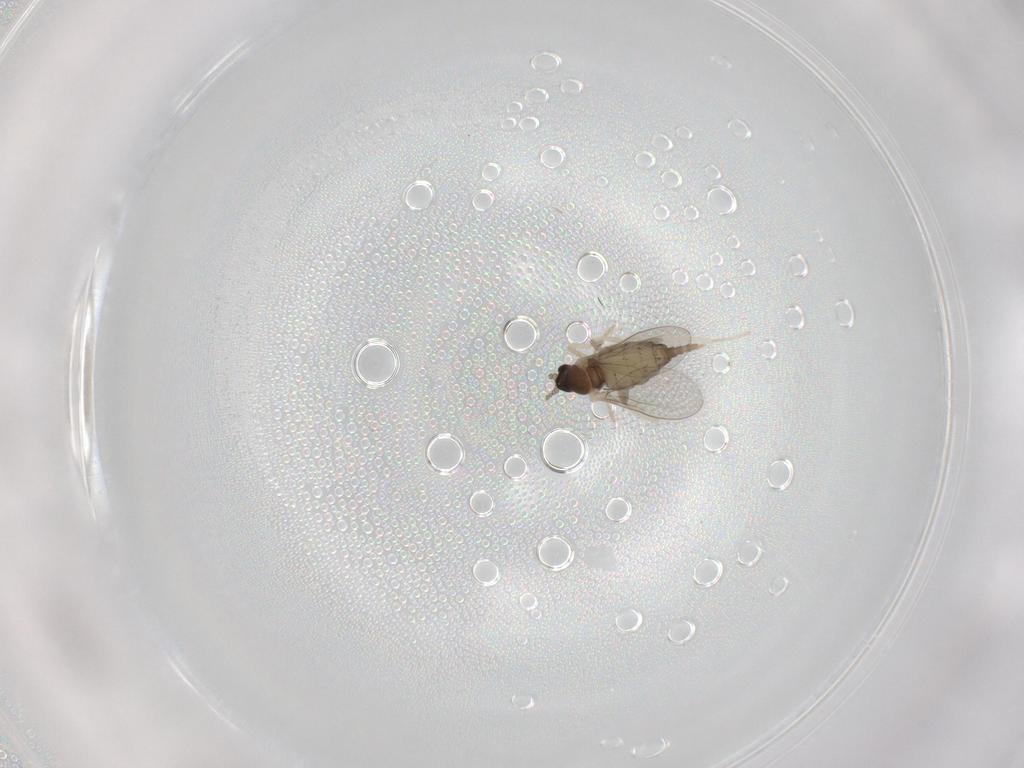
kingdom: Animalia
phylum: Arthropoda
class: Insecta
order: Diptera
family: Cecidomyiidae
